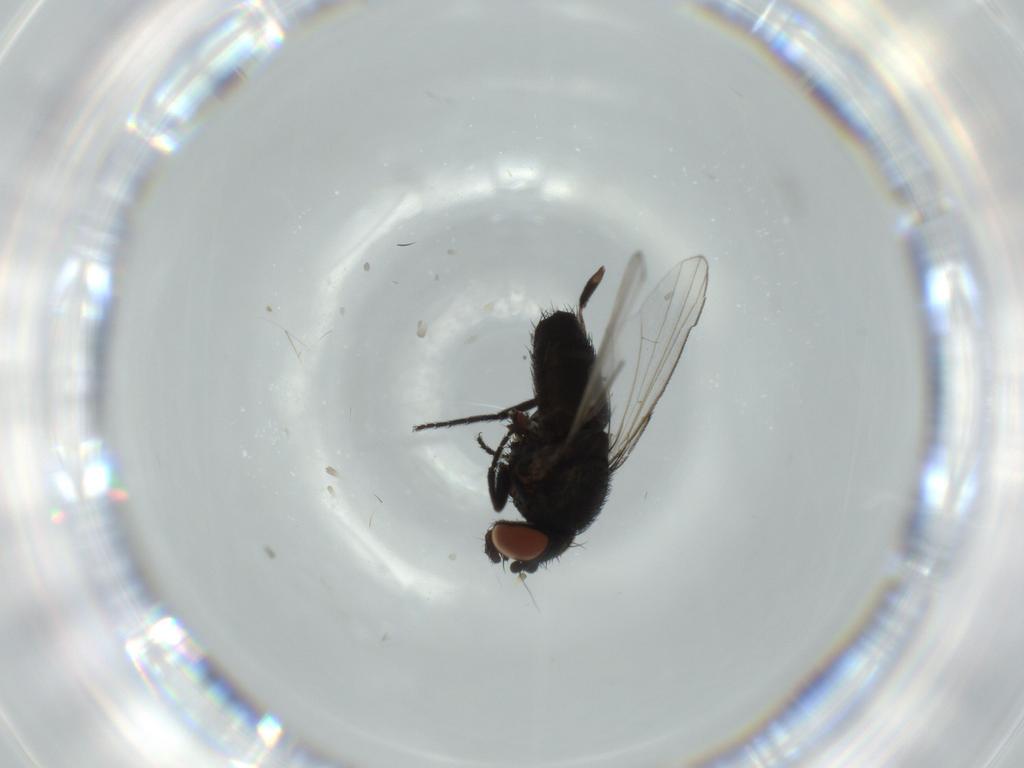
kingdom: Animalia
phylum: Arthropoda
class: Insecta
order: Diptera
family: Milichiidae
